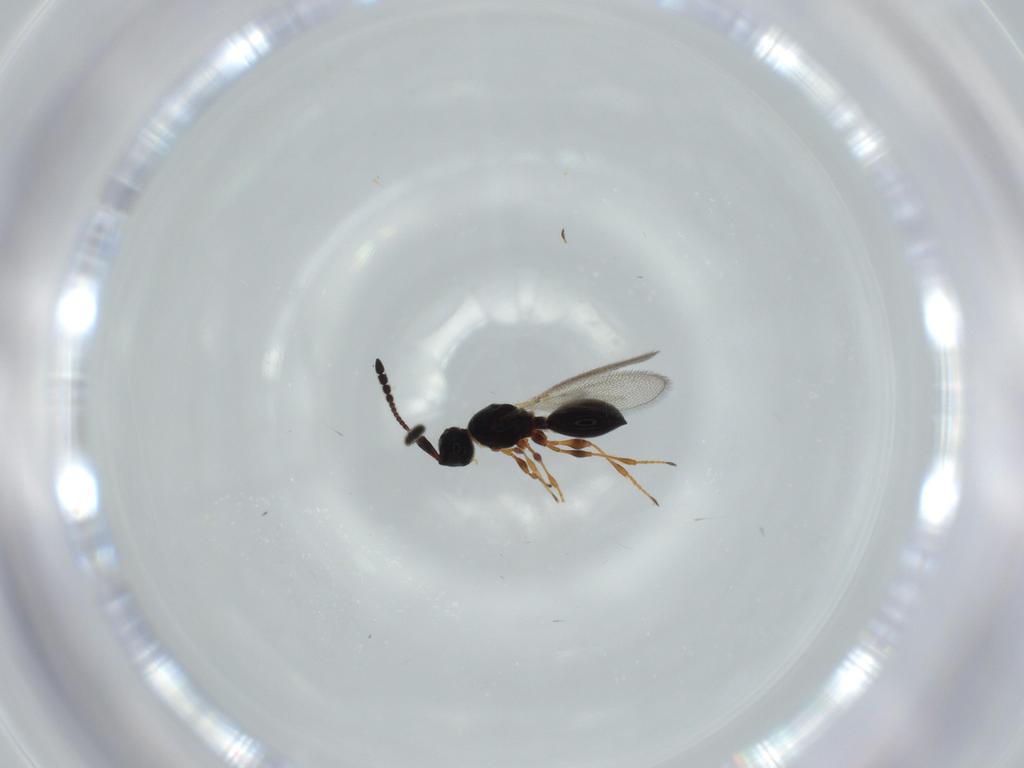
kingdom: Animalia
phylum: Arthropoda
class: Insecta
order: Hymenoptera
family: Diapriidae
